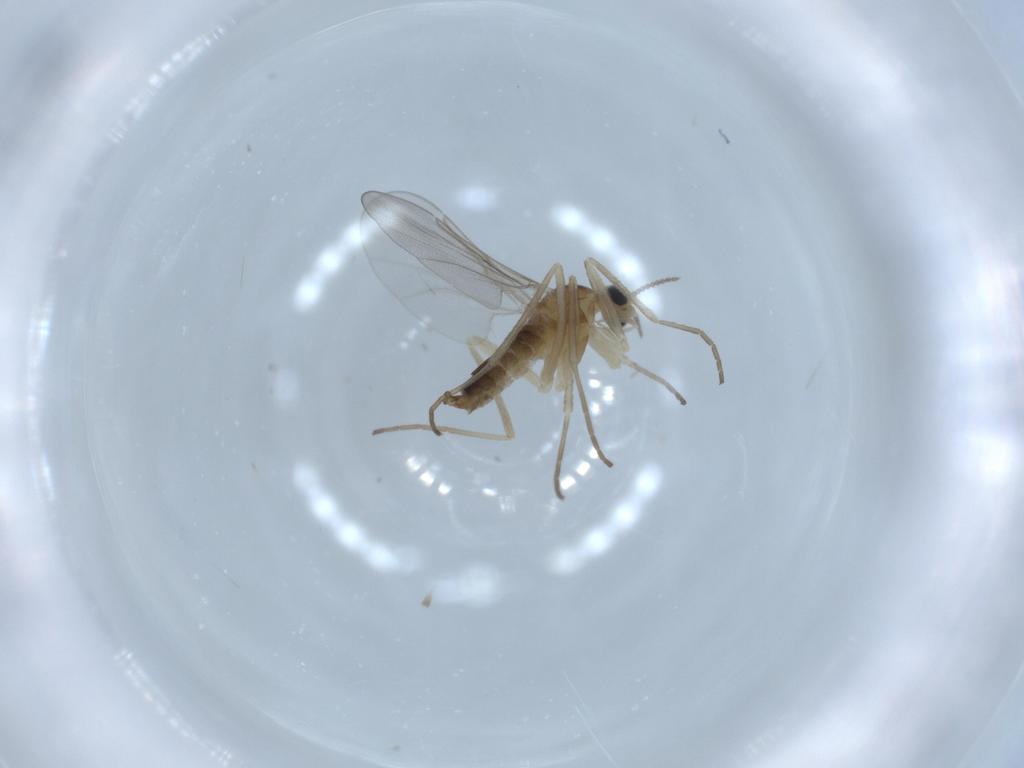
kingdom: Animalia
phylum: Arthropoda
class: Insecta
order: Diptera
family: Cecidomyiidae
